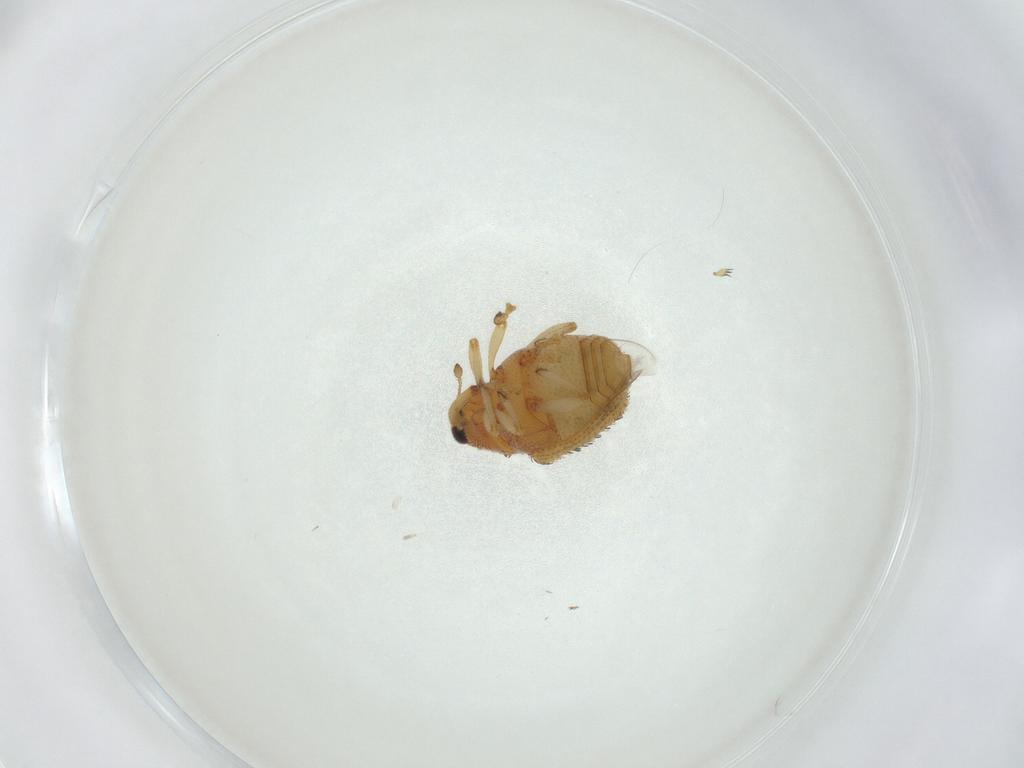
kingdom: Animalia
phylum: Arthropoda
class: Insecta
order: Coleoptera
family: Curculionidae
